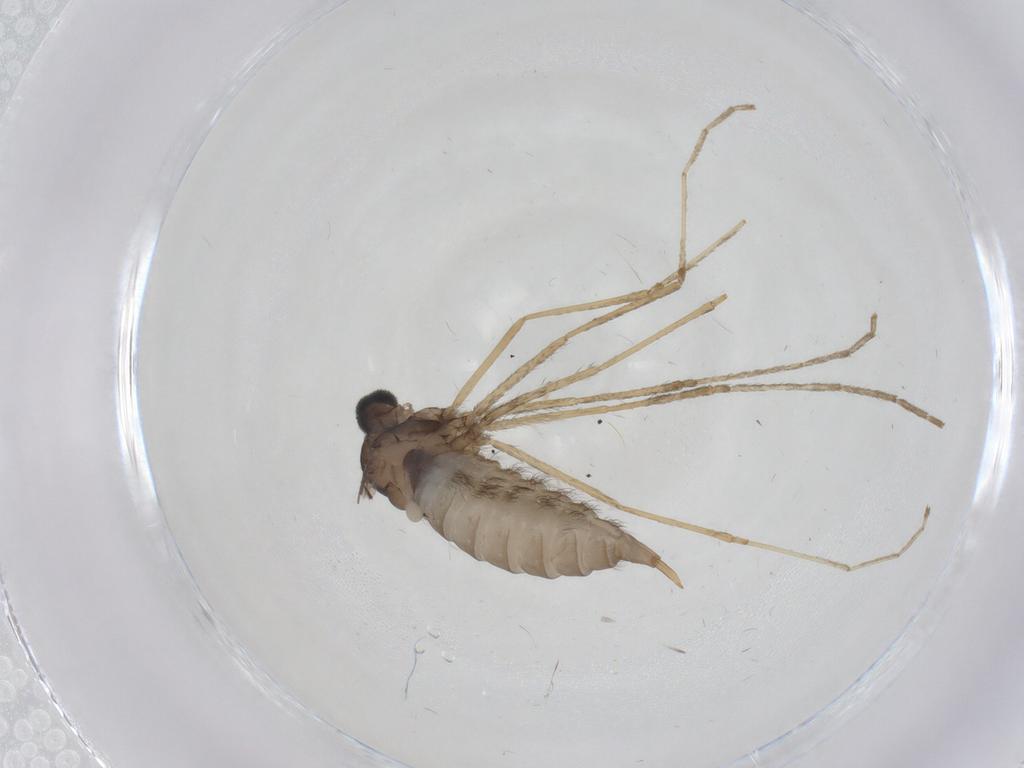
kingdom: Animalia
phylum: Arthropoda
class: Insecta
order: Diptera
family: Cecidomyiidae
